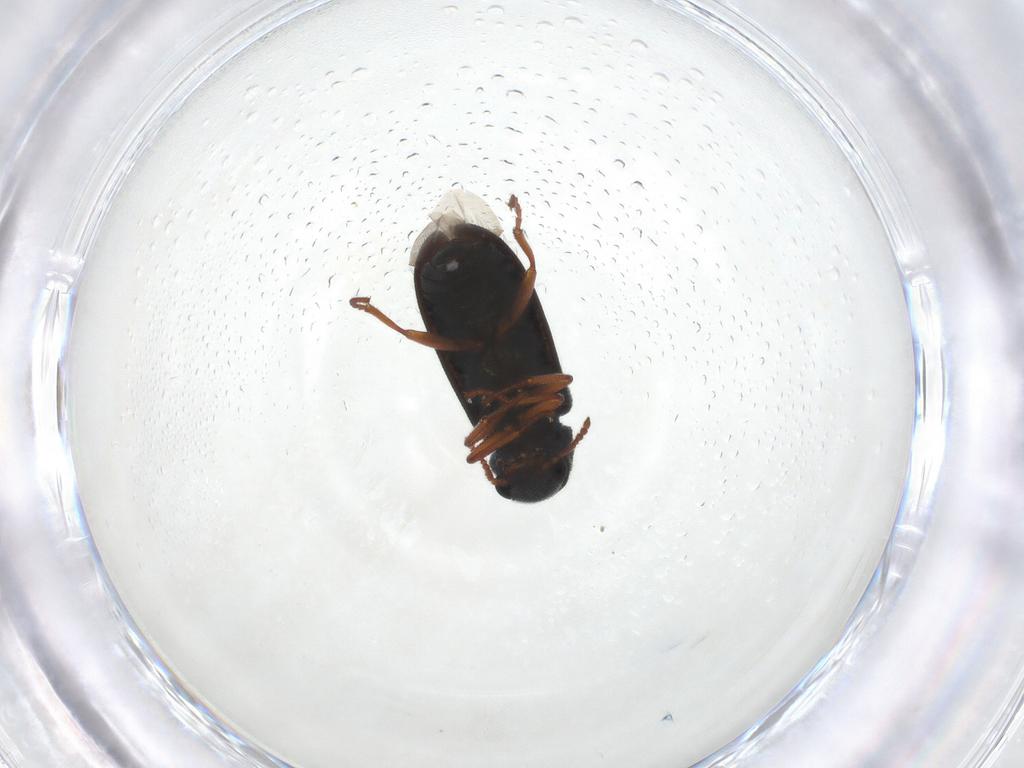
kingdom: Animalia
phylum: Arthropoda
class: Insecta
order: Coleoptera
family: Melyridae
